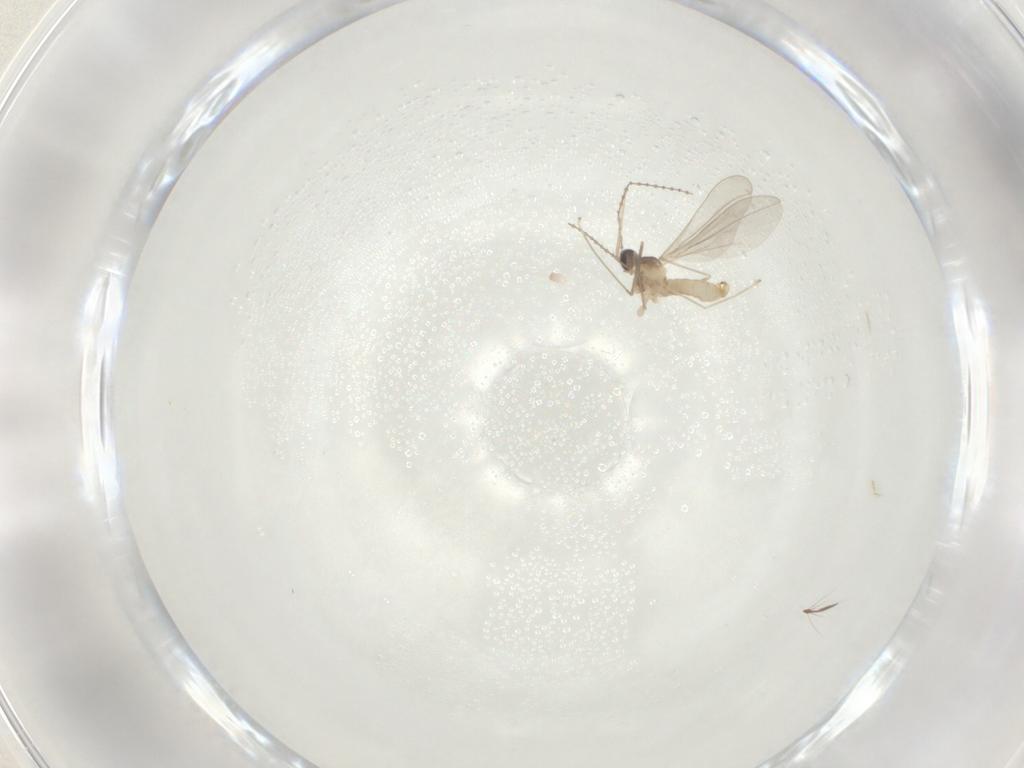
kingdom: Animalia
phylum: Arthropoda
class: Insecta
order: Diptera
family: Cecidomyiidae
